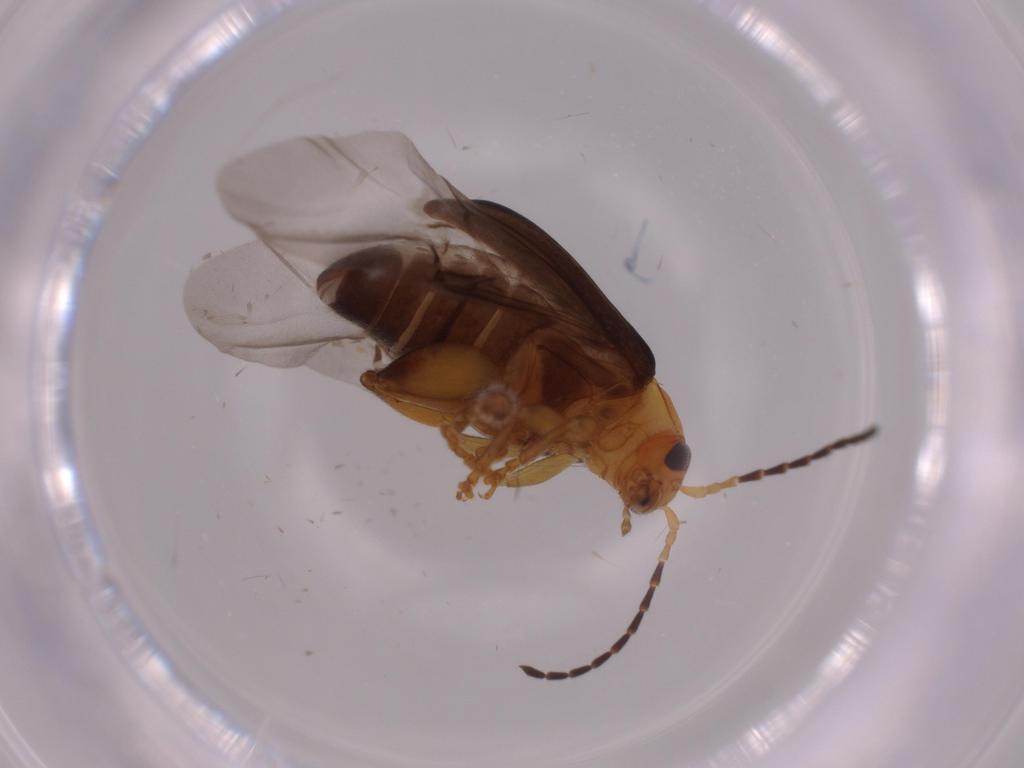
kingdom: Animalia
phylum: Arthropoda
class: Insecta
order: Coleoptera
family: Chrysomelidae
